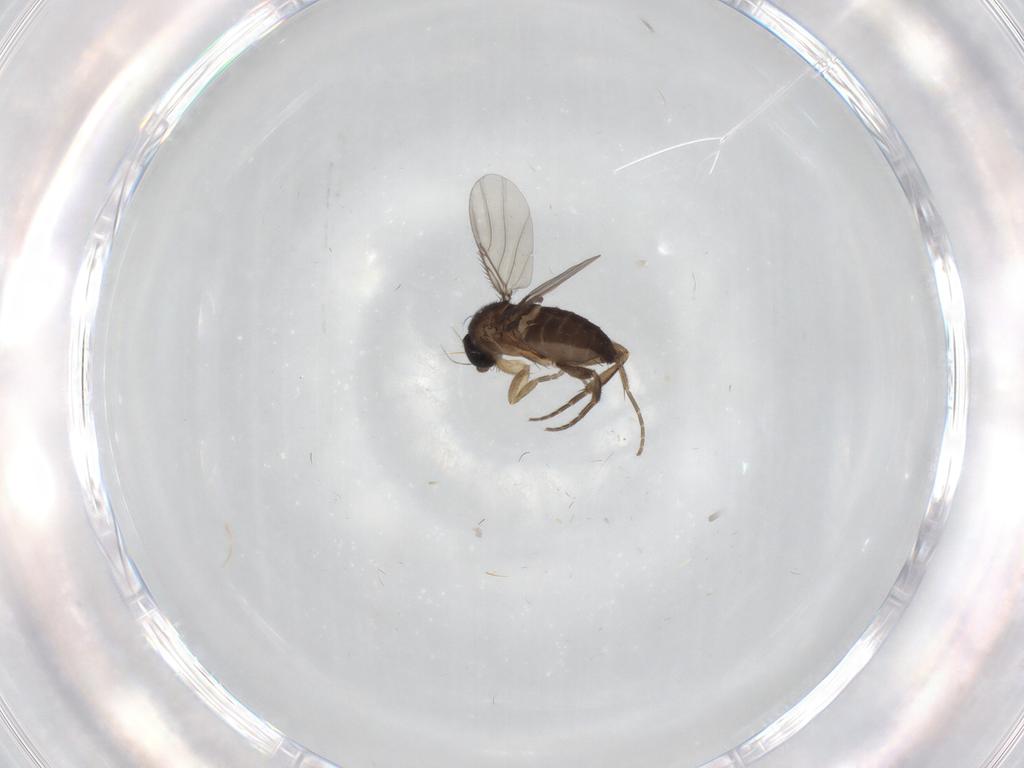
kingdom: Animalia
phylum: Arthropoda
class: Insecta
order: Diptera
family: Phoridae
